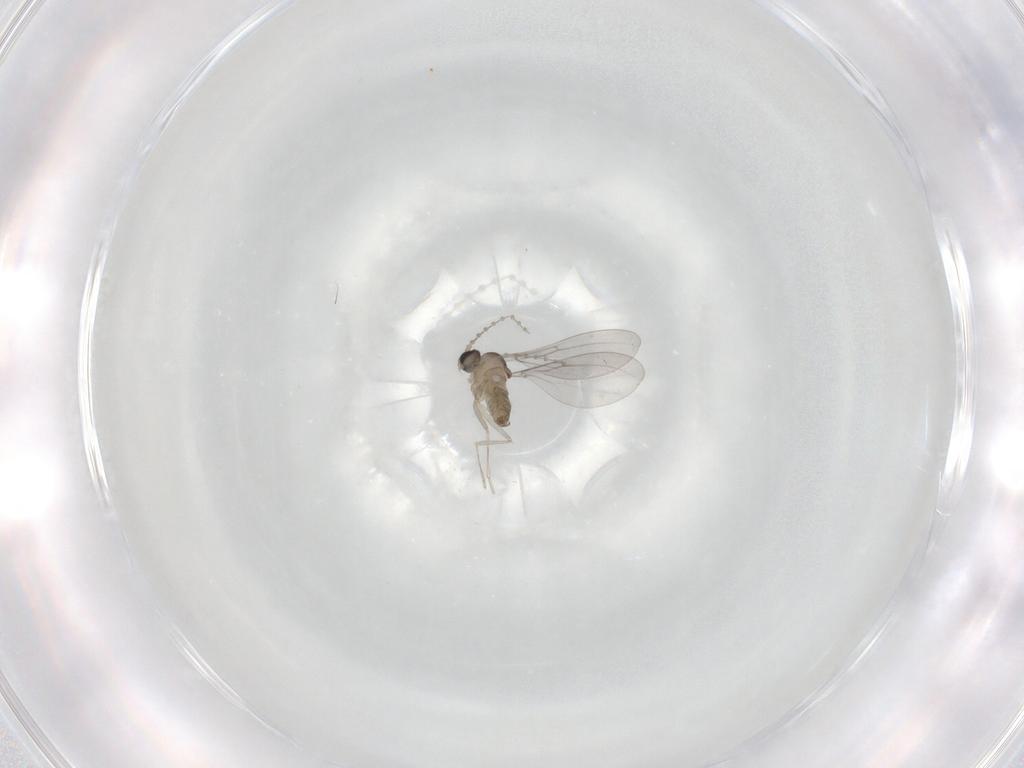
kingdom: Animalia
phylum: Arthropoda
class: Insecta
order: Diptera
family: Cecidomyiidae
